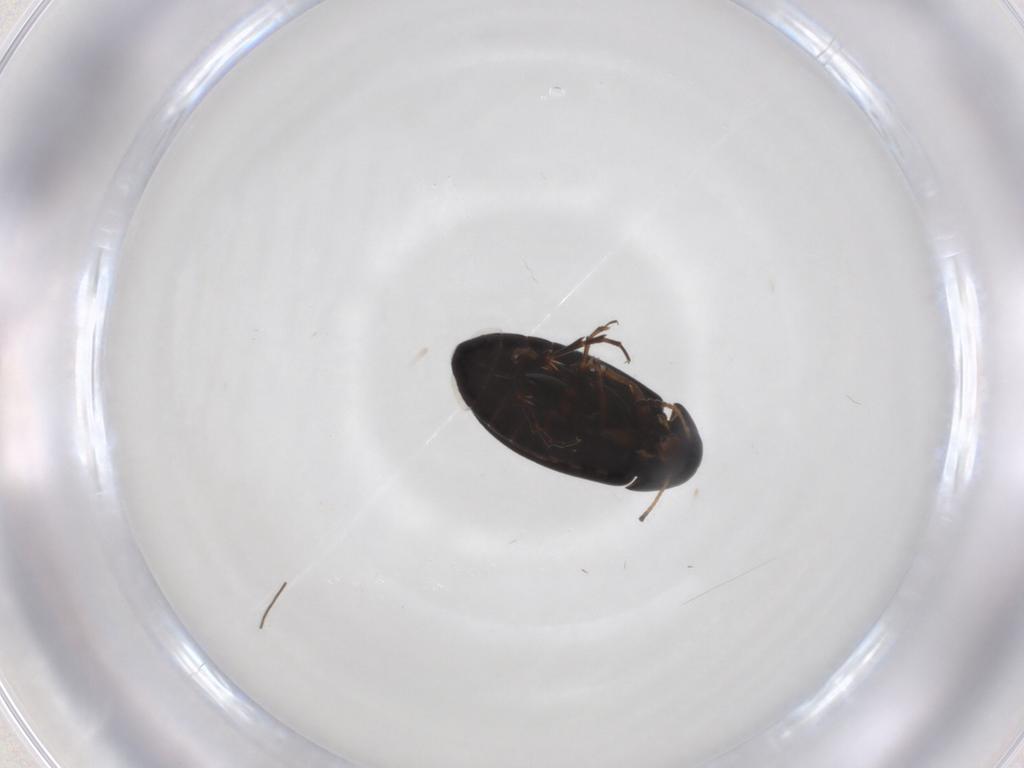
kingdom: Animalia
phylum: Arthropoda
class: Insecta
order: Coleoptera
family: Scraptiidae
